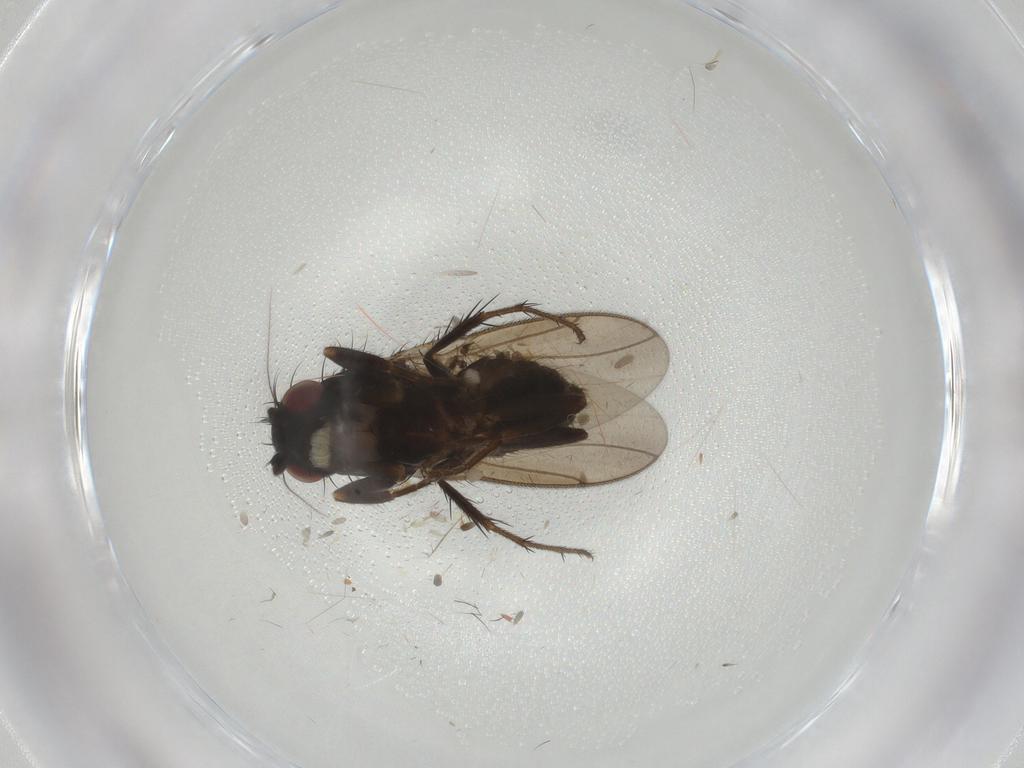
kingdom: Animalia
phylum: Arthropoda
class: Insecta
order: Diptera
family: Sphaeroceridae
